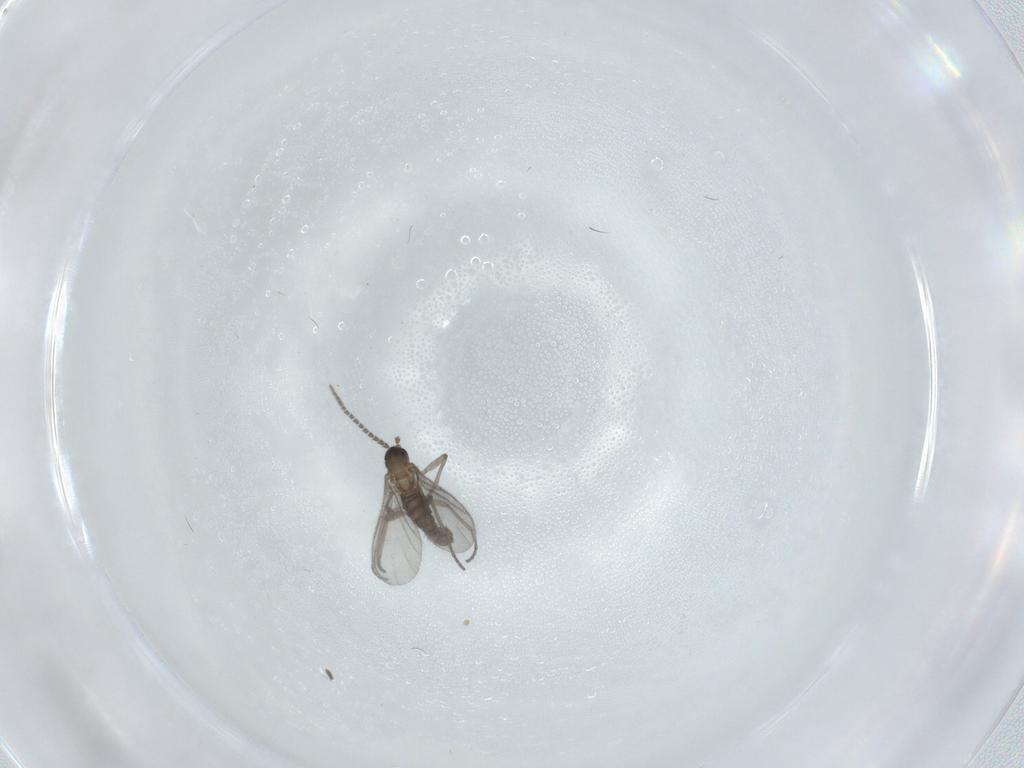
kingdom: Animalia
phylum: Arthropoda
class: Insecta
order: Diptera
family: Sciaridae
